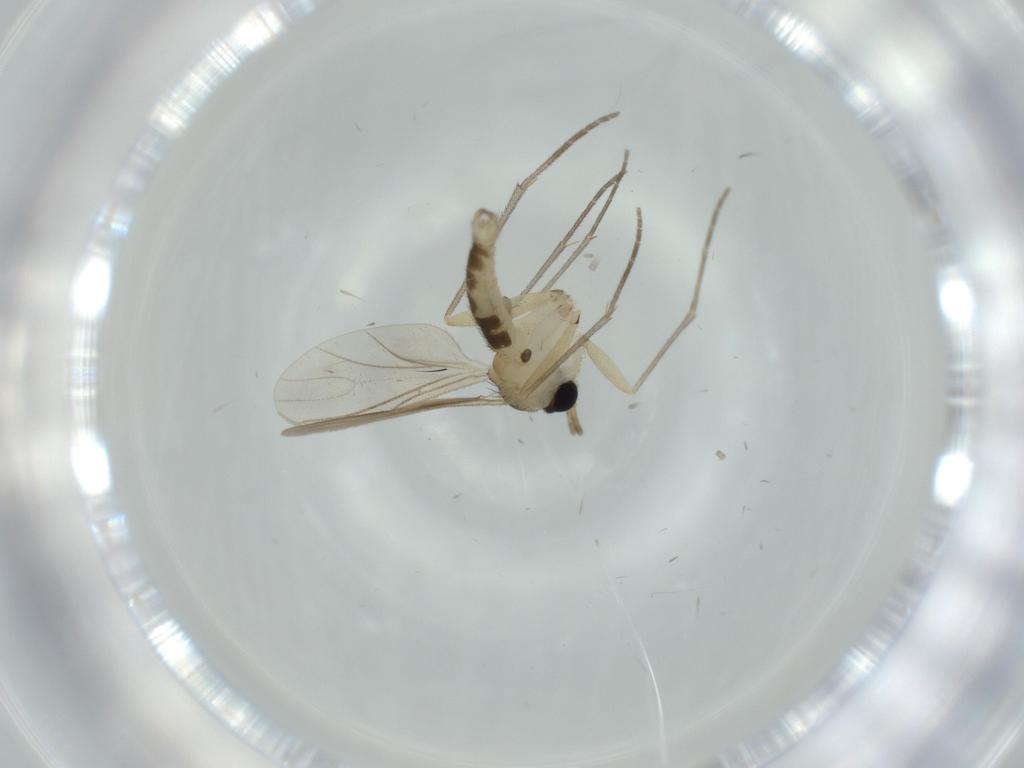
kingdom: Animalia
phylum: Arthropoda
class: Insecta
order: Diptera
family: Sciaridae
